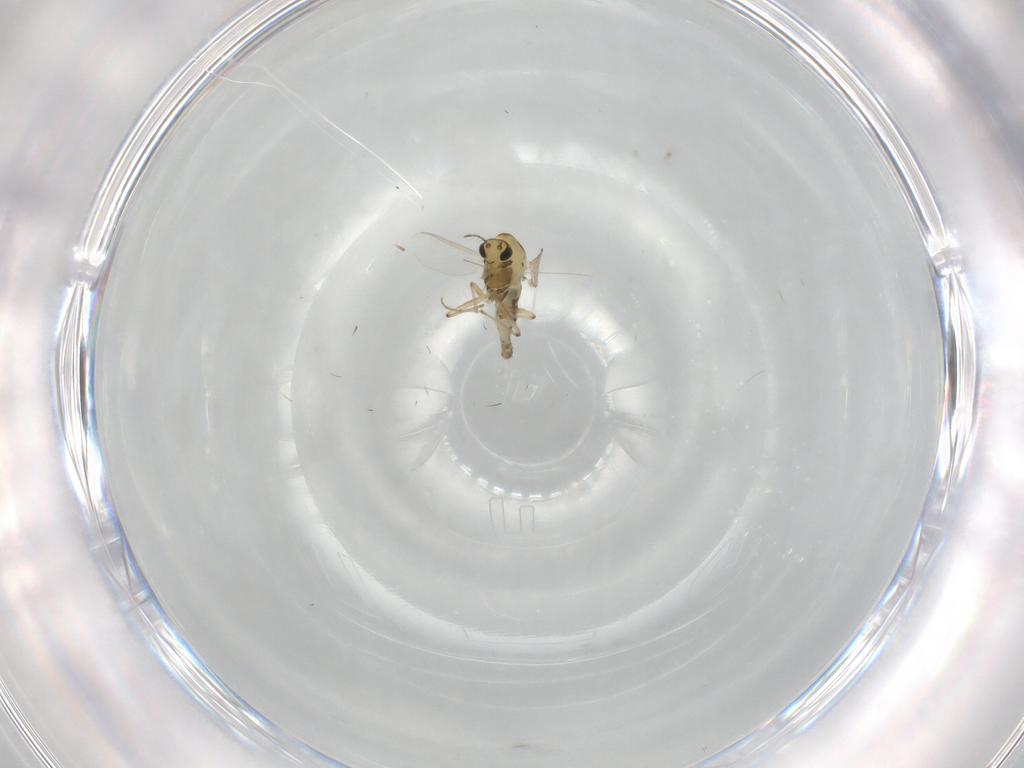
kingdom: Animalia
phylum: Arthropoda
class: Insecta
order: Diptera
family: Chironomidae
